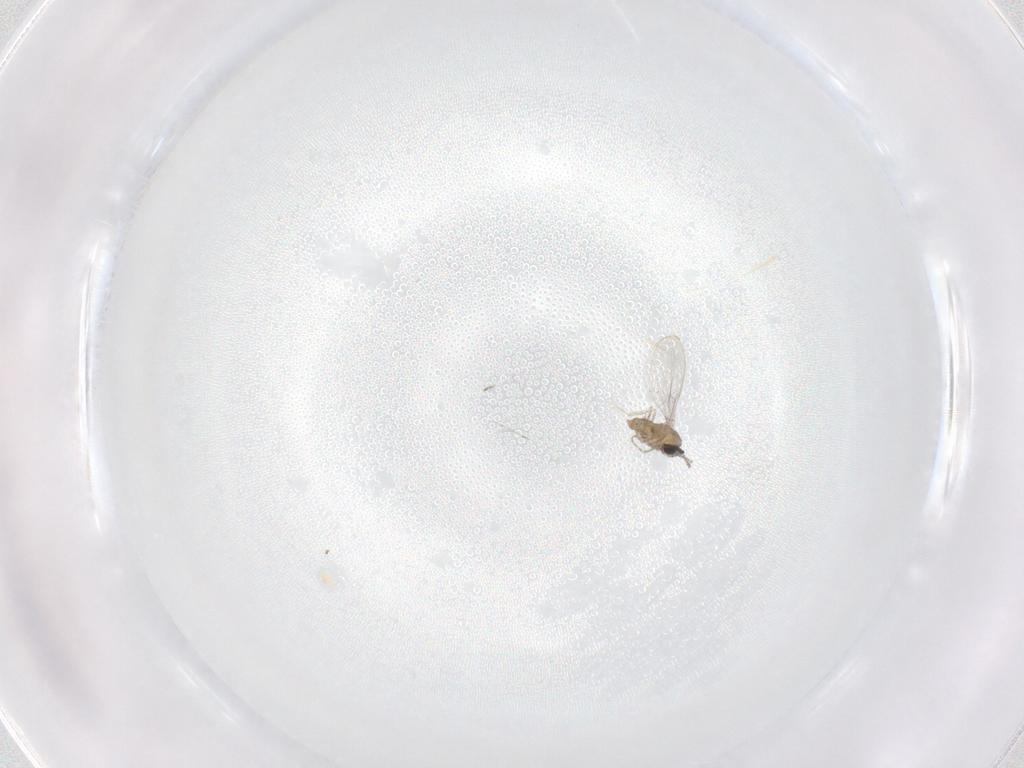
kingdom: Animalia
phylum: Arthropoda
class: Insecta
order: Diptera
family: Cecidomyiidae
